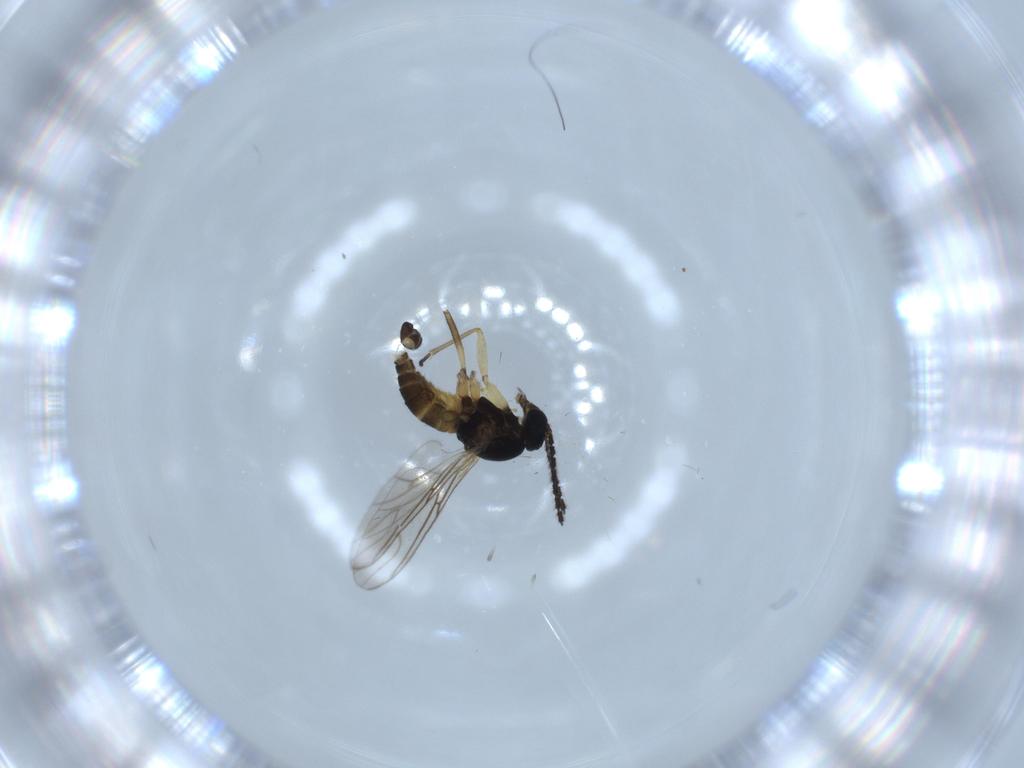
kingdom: Animalia
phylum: Arthropoda
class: Insecta
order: Diptera
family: Sciaridae
